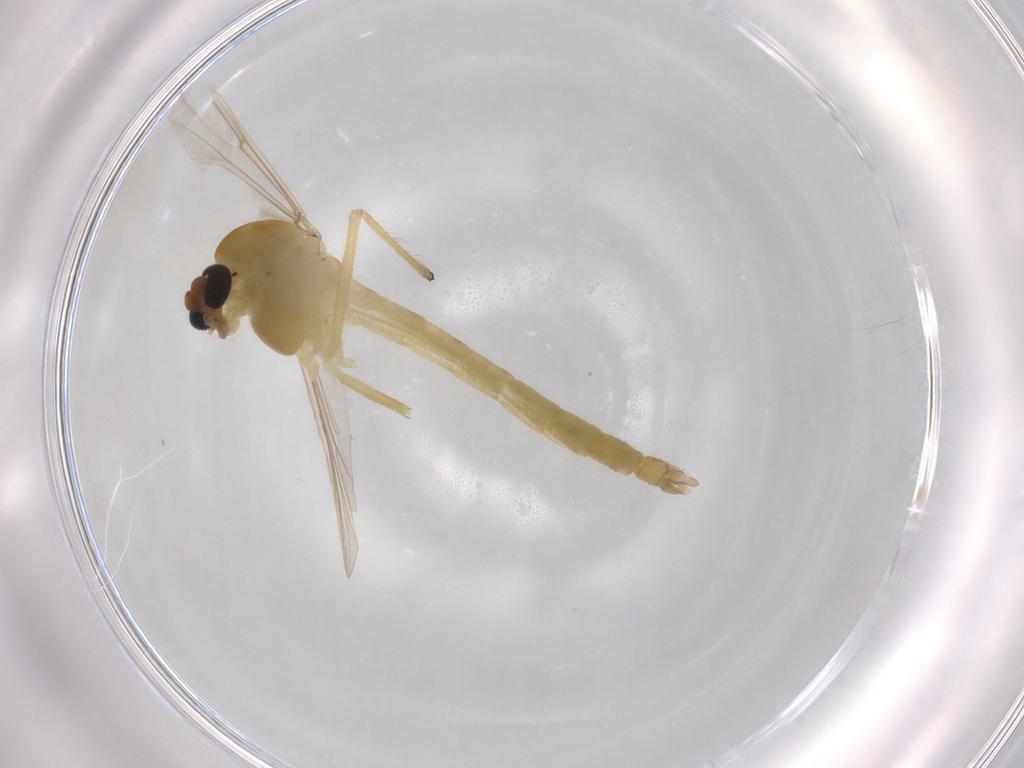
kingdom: Animalia
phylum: Arthropoda
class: Insecta
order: Diptera
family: Chironomidae
